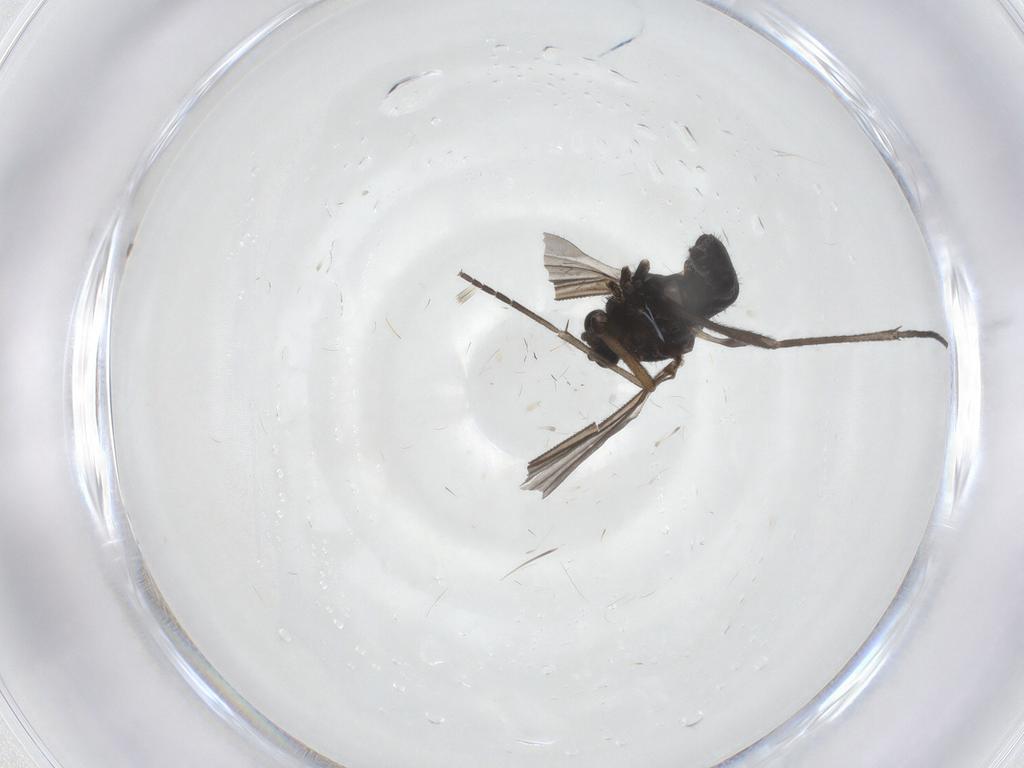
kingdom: Animalia
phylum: Arthropoda
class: Insecta
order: Diptera
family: Sciaridae
